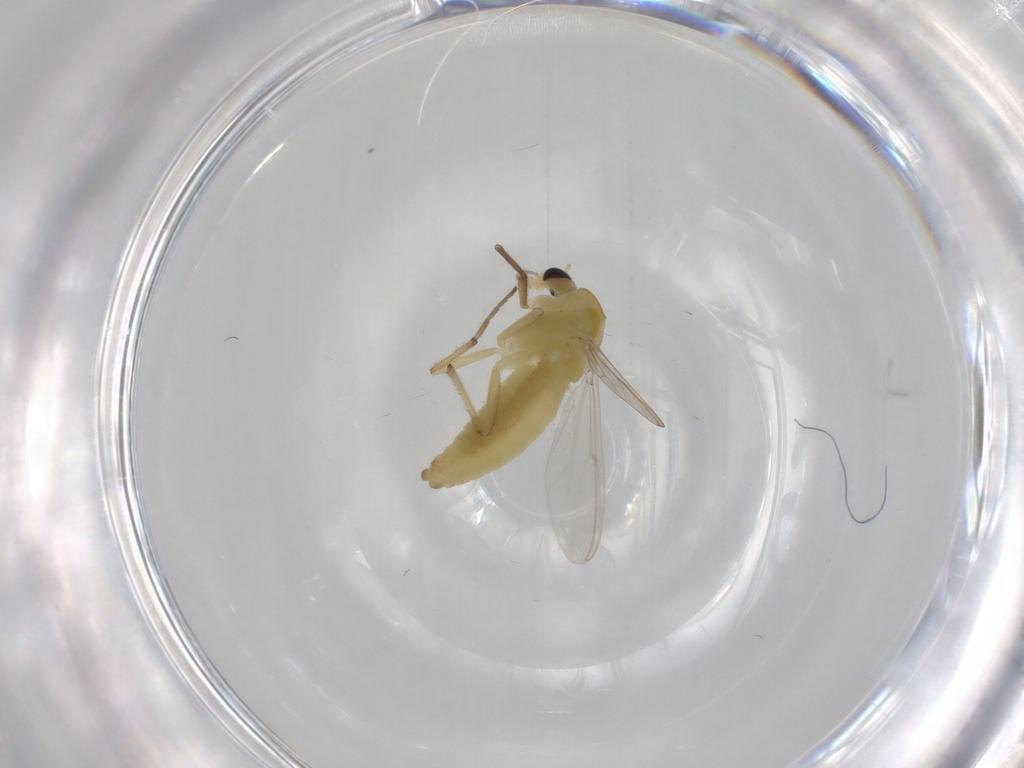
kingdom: Animalia
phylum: Arthropoda
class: Insecta
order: Diptera
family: Chironomidae
